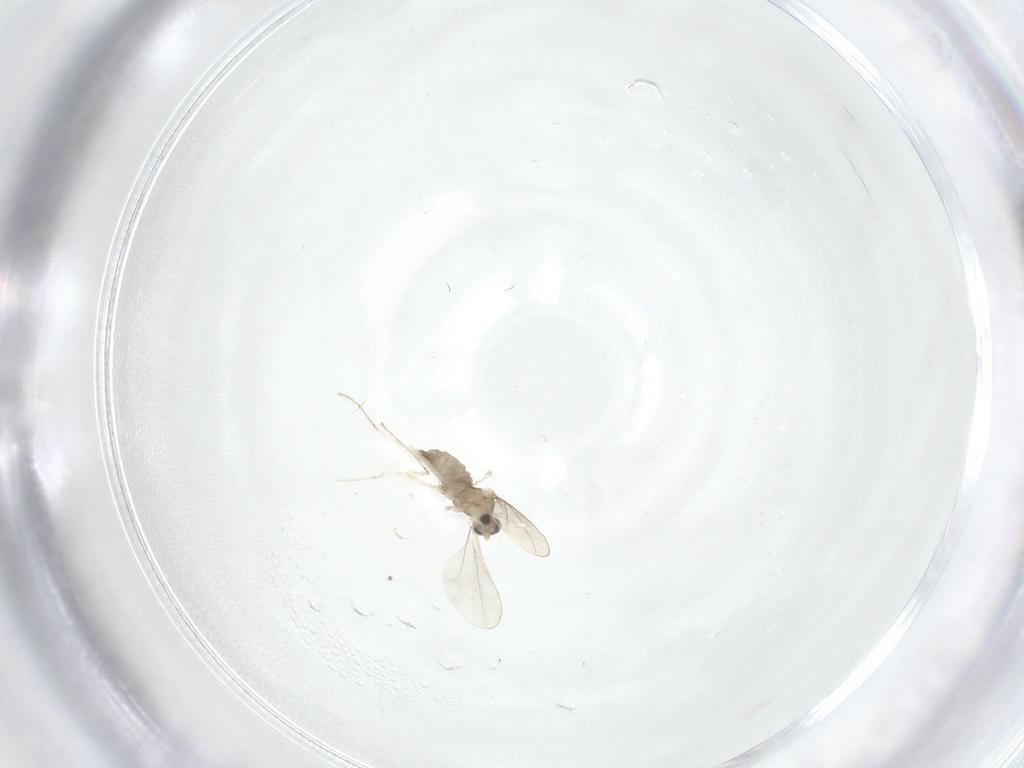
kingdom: Animalia
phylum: Arthropoda
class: Insecta
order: Diptera
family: Cecidomyiidae
